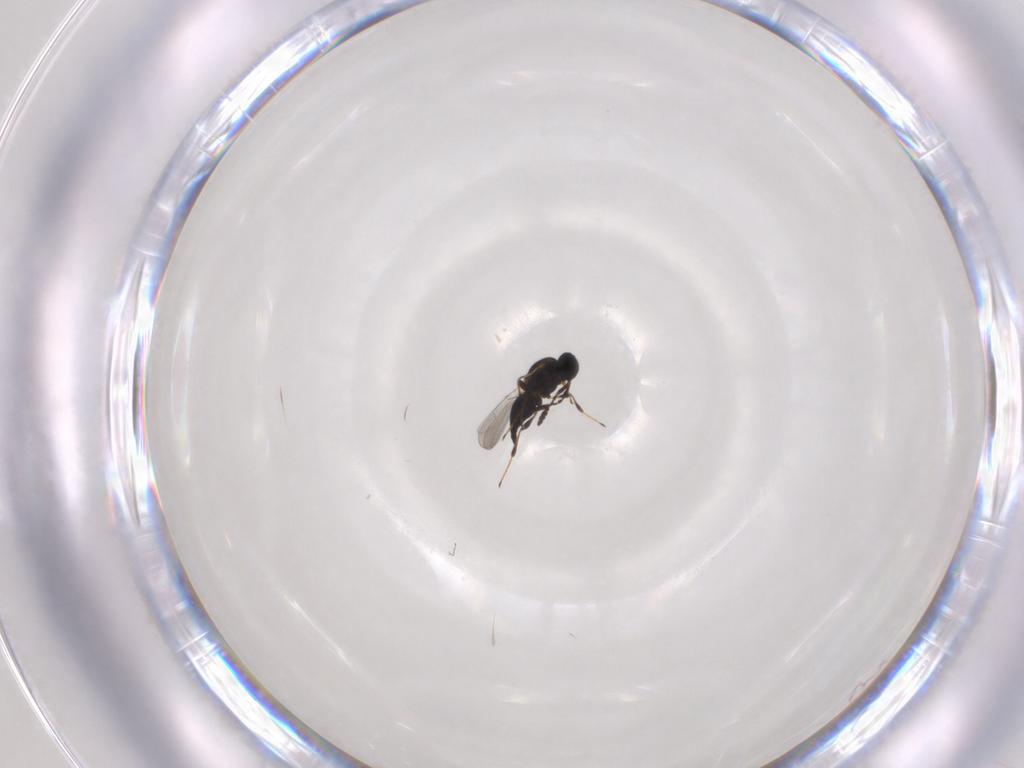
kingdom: Animalia
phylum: Arthropoda
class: Insecta
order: Hymenoptera
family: Platygastridae
